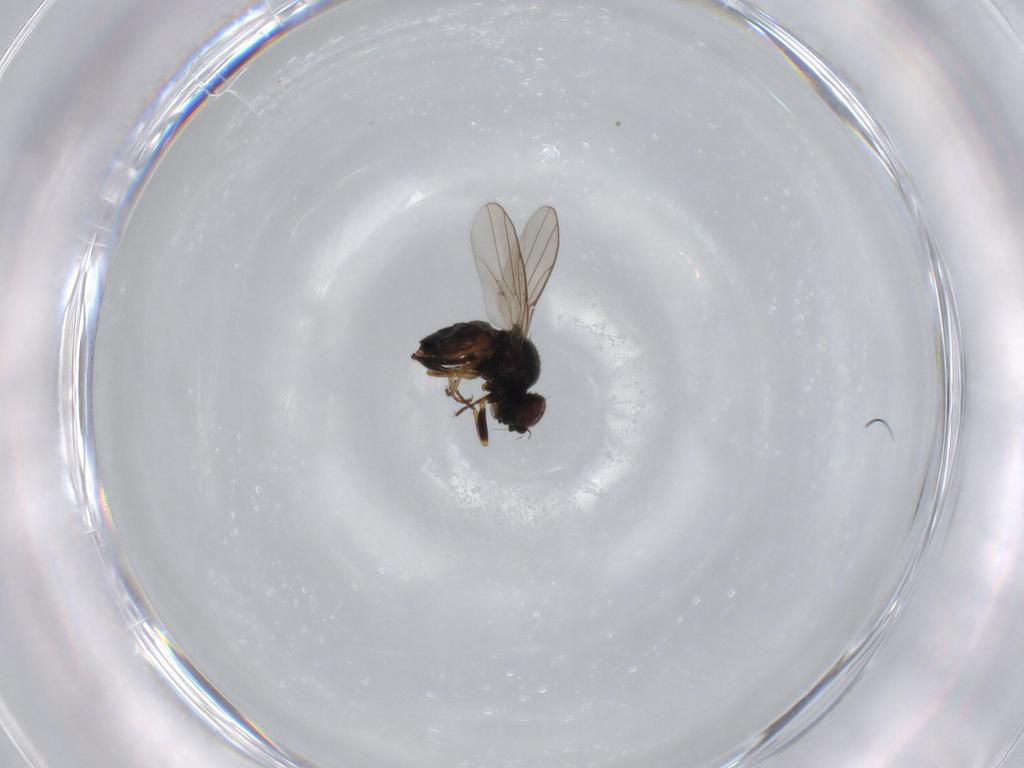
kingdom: Animalia
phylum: Arthropoda
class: Insecta
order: Diptera
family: Chloropidae
